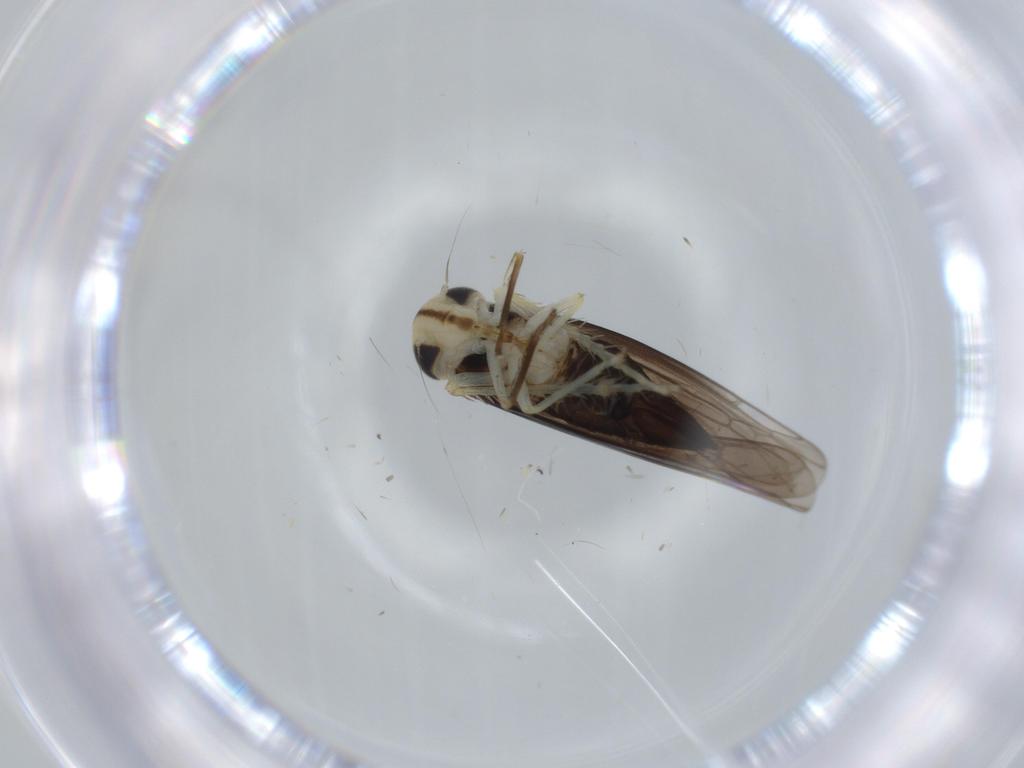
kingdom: Animalia
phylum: Arthropoda
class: Insecta
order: Hemiptera
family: Cicadellidae
